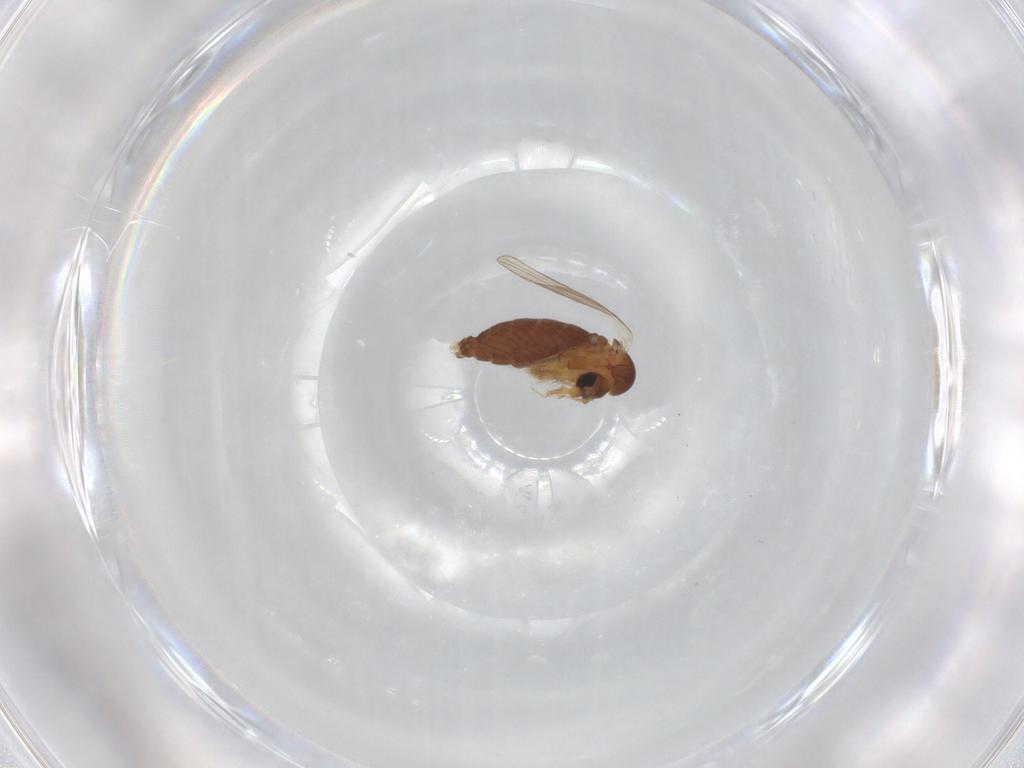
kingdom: Animalia
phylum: Arthropoda
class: Insecta
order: Diptera
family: Psychodidae
